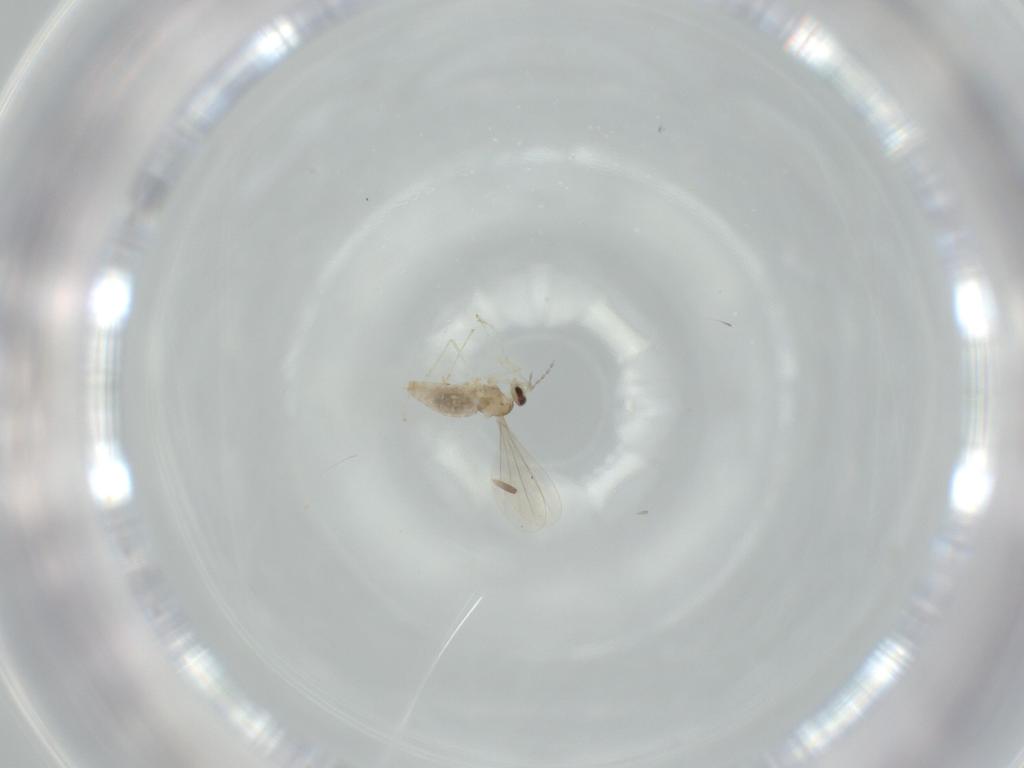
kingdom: Animalia
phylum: Arthropoda
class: Insecta
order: Diptera
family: Cecidomyiidae
